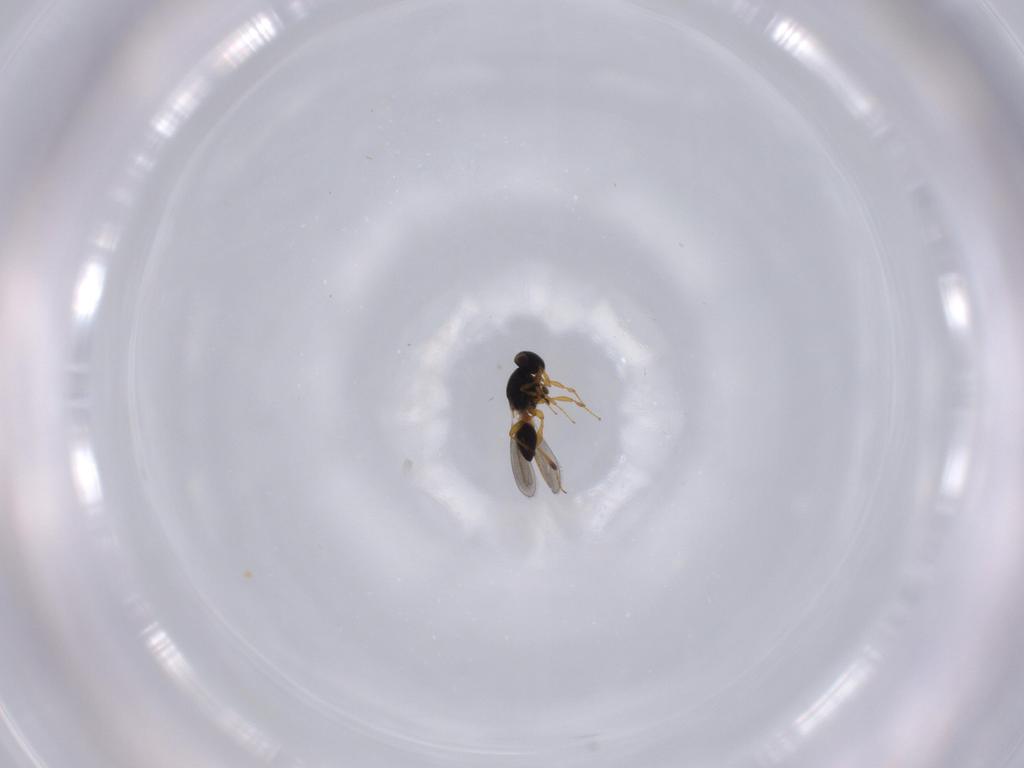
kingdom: Animalia
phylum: Arthropoda
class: Insecta
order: Hymenoptera
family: Platygastridae
